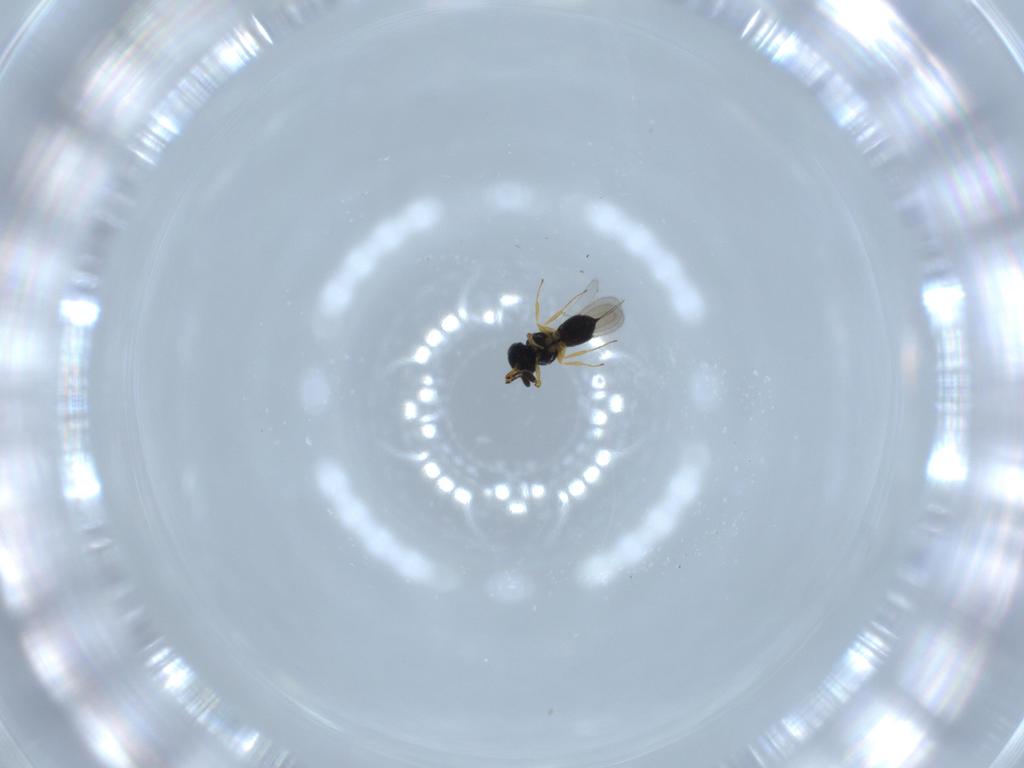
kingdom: Animalia
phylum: Arthropoda
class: Insecta
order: Hymenoptera
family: Scelionidae
